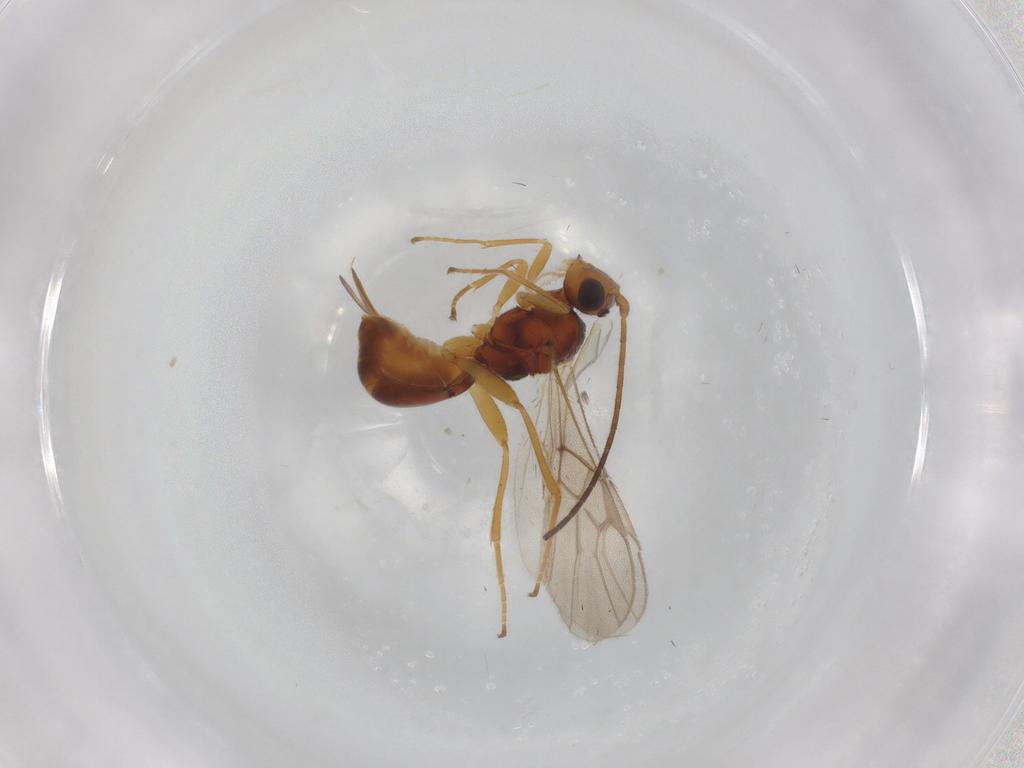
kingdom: Animalia
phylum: Arthropoda
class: Insecta
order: Hymenoptera
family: Braconidae
